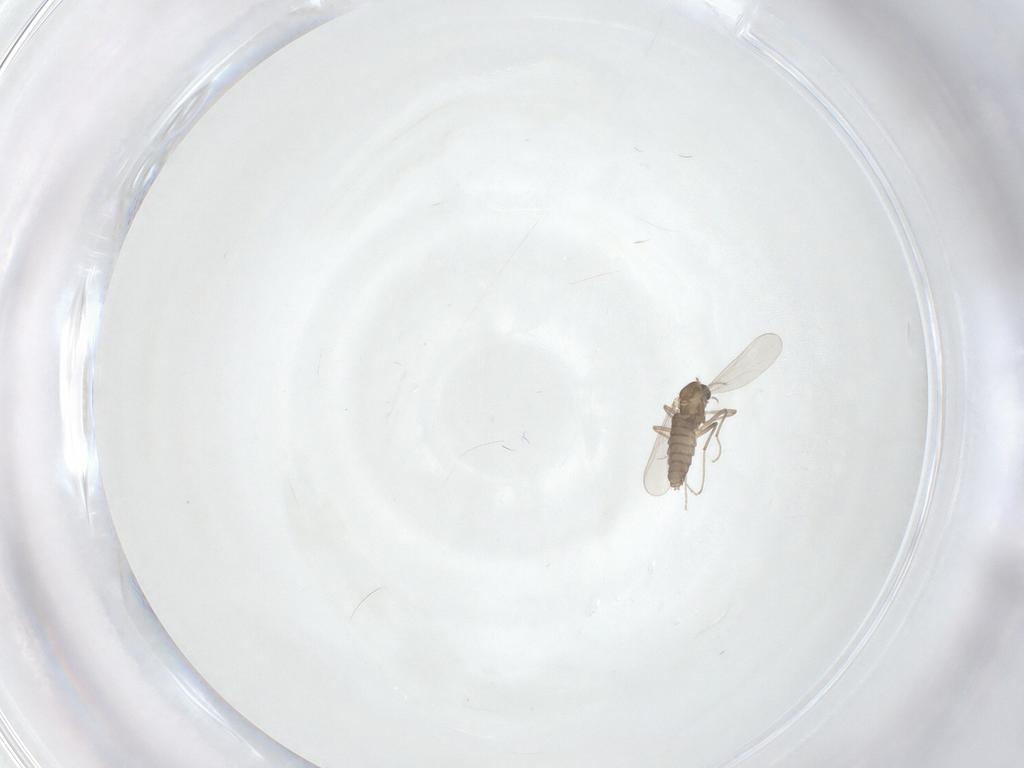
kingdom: Animalia
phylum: Arthropoda
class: Insecta
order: Diptera
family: Chironomidae
